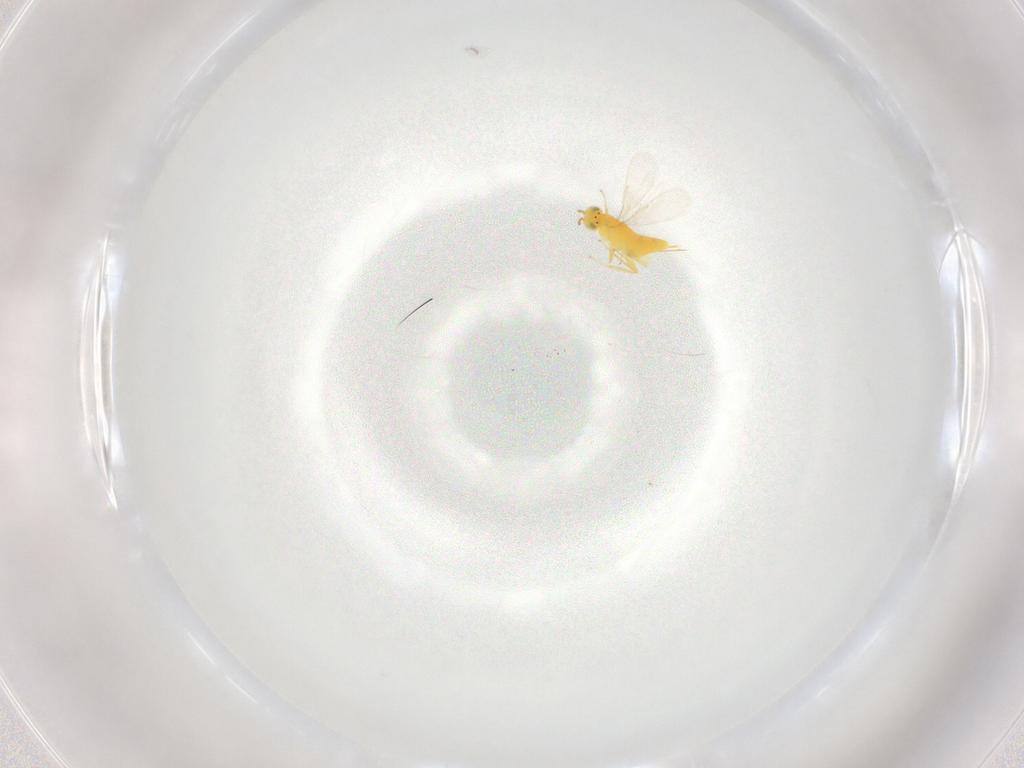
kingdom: Animalia
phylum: Arthropoda
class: Insecta
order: Hymenoptera
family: Aphelinidae
